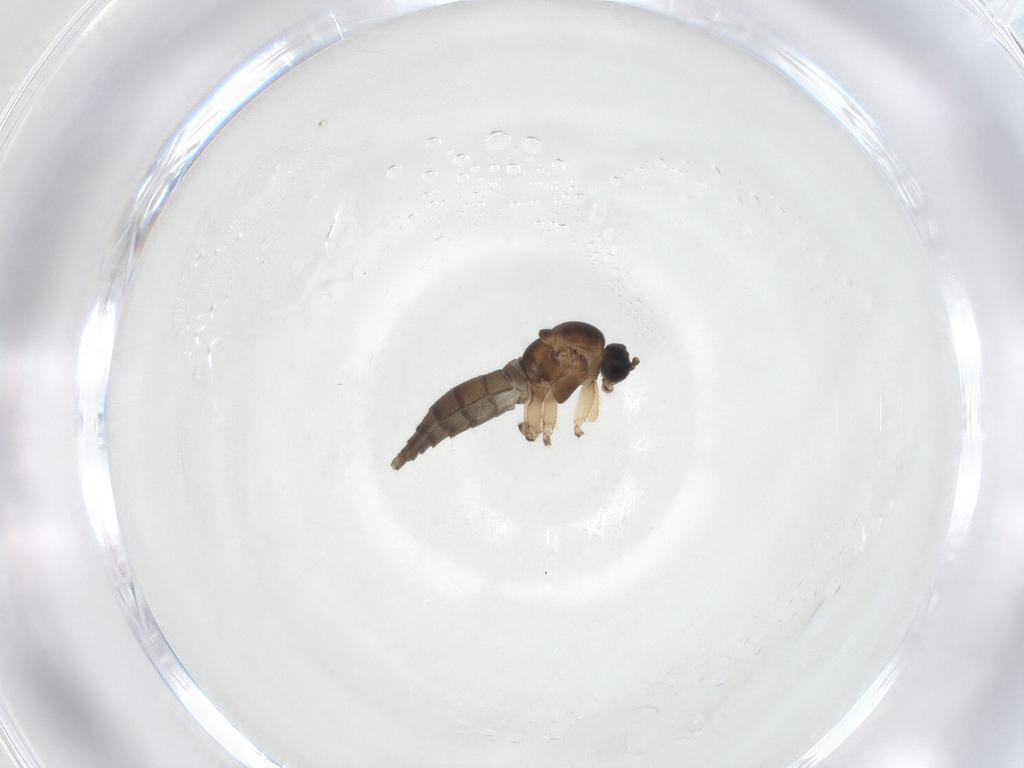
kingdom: Animalia
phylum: Arthropoda
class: Insecta
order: Diptera
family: Sciaridae
